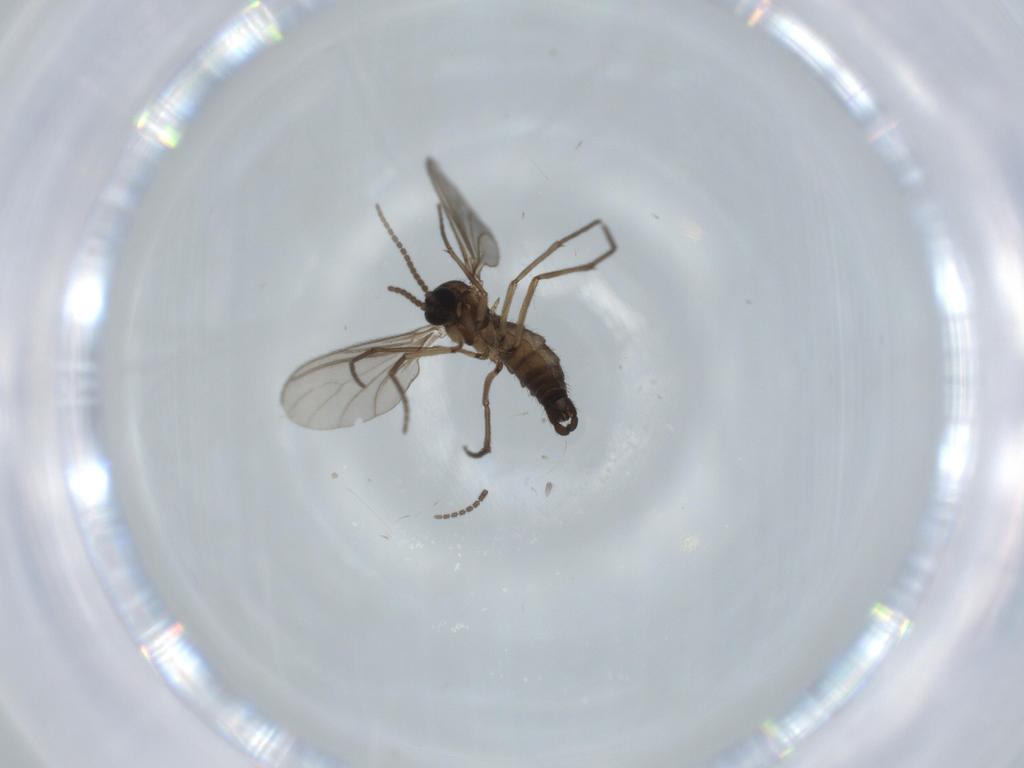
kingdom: Animalia
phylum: Arthropoda
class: Insecta
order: Diptera
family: Sciaridae
